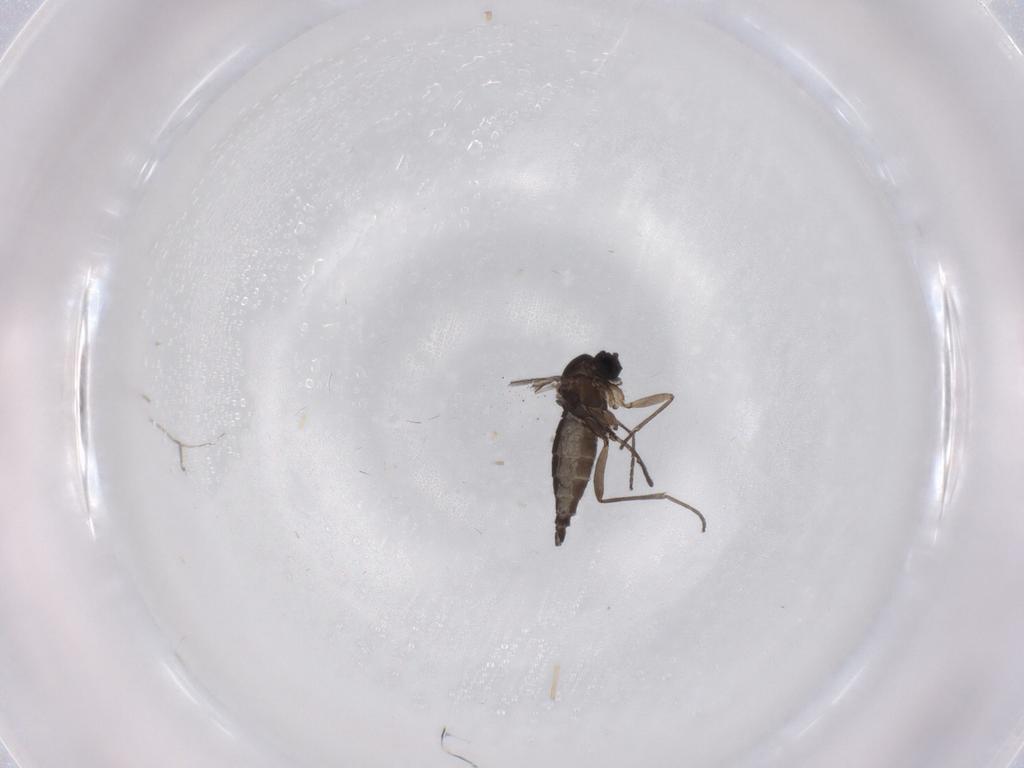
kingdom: Animalia
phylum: Arthropoda
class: Insecta
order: Diptera
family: Sciaridae
